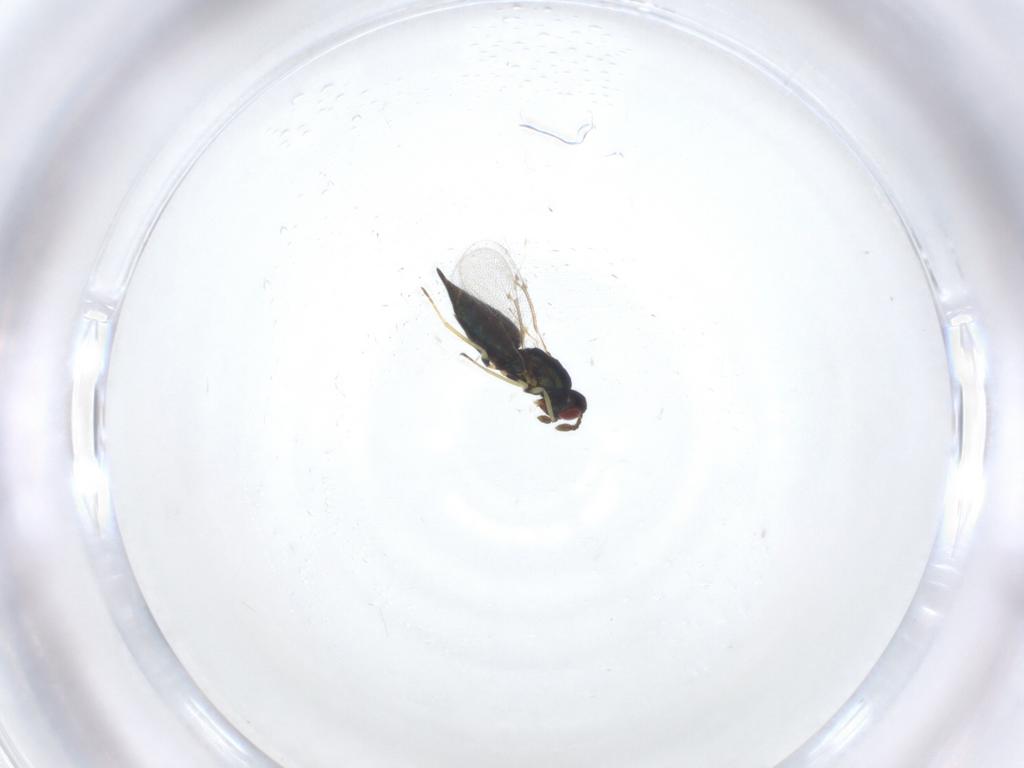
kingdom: Animalia
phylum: Arthropoda
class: Insecta
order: Hymenoptera
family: Eulophidae
